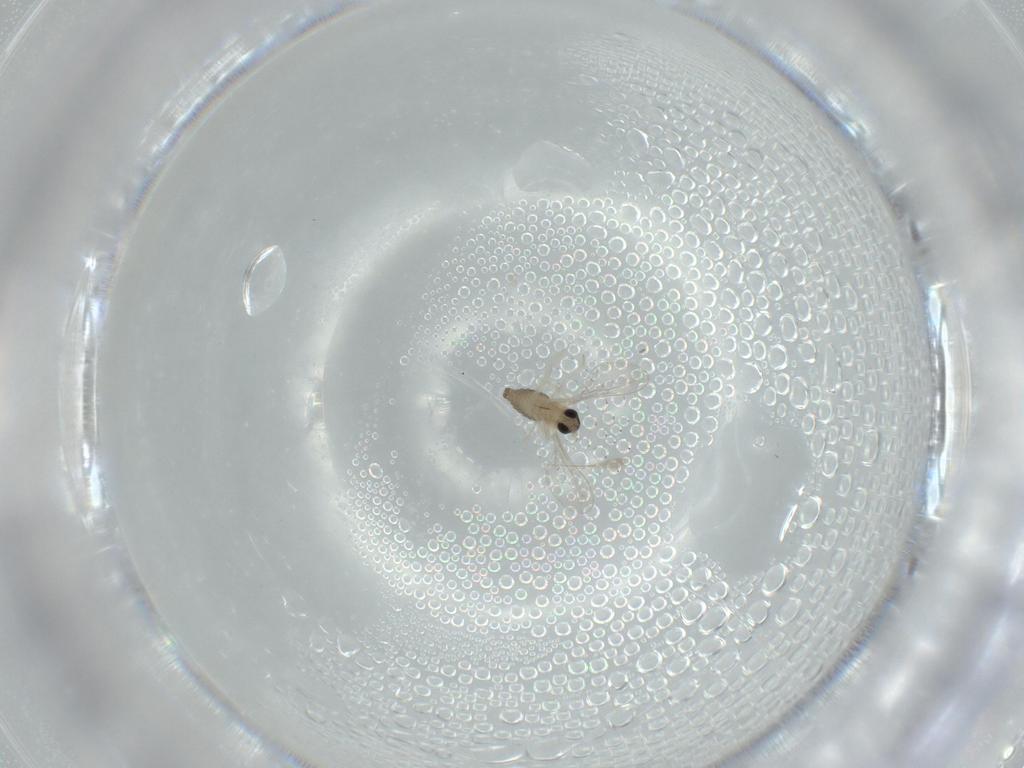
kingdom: Animalia
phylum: Arthropoda
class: Insecta
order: Diptera
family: Cecidomyiidae
